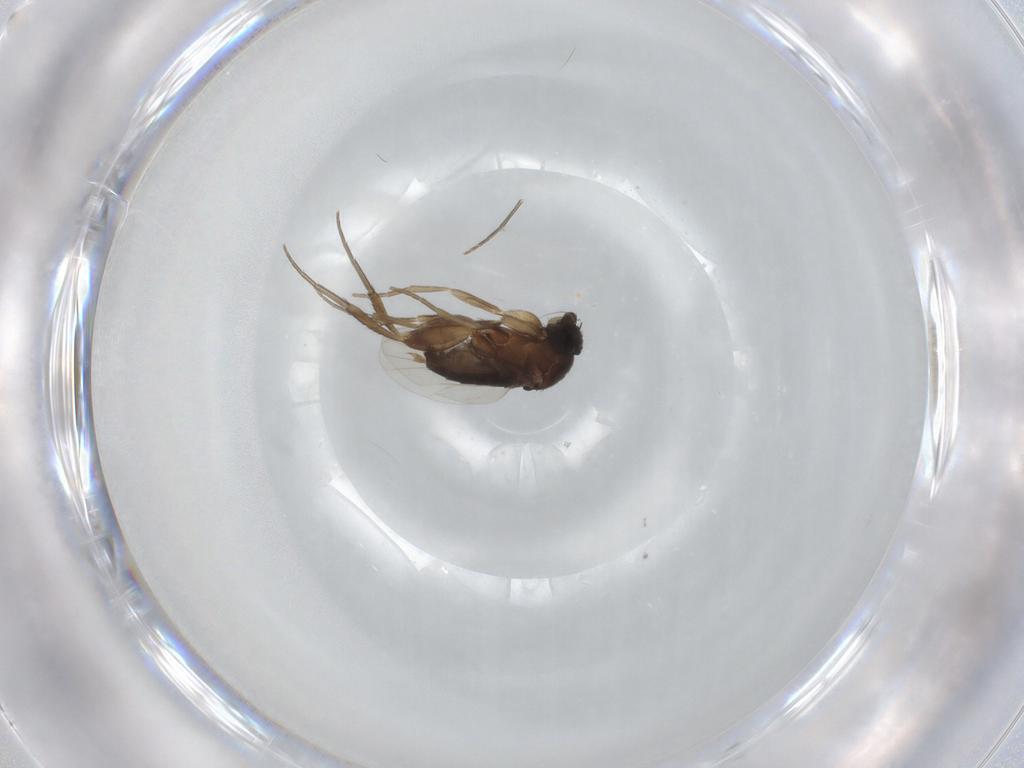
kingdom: Animalia
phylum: Arthropoda
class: Insecta
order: Diptera
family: Phoridae
